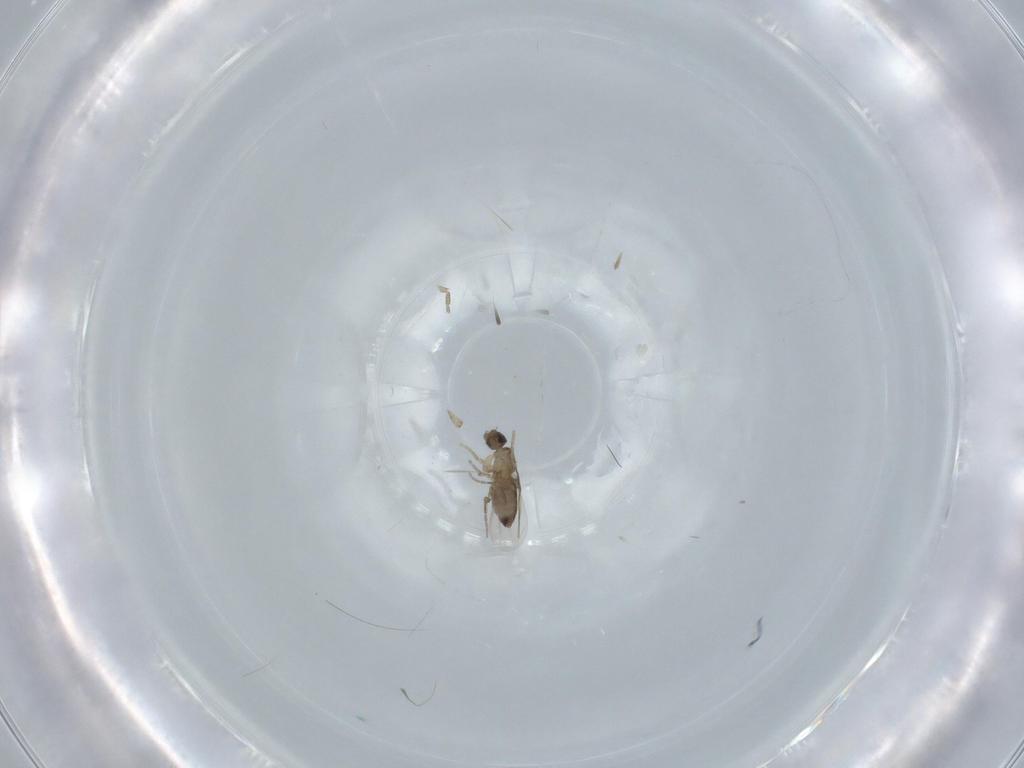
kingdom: Animalia
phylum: Arthropoda
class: Insecta
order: Diptera
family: Phoridae
